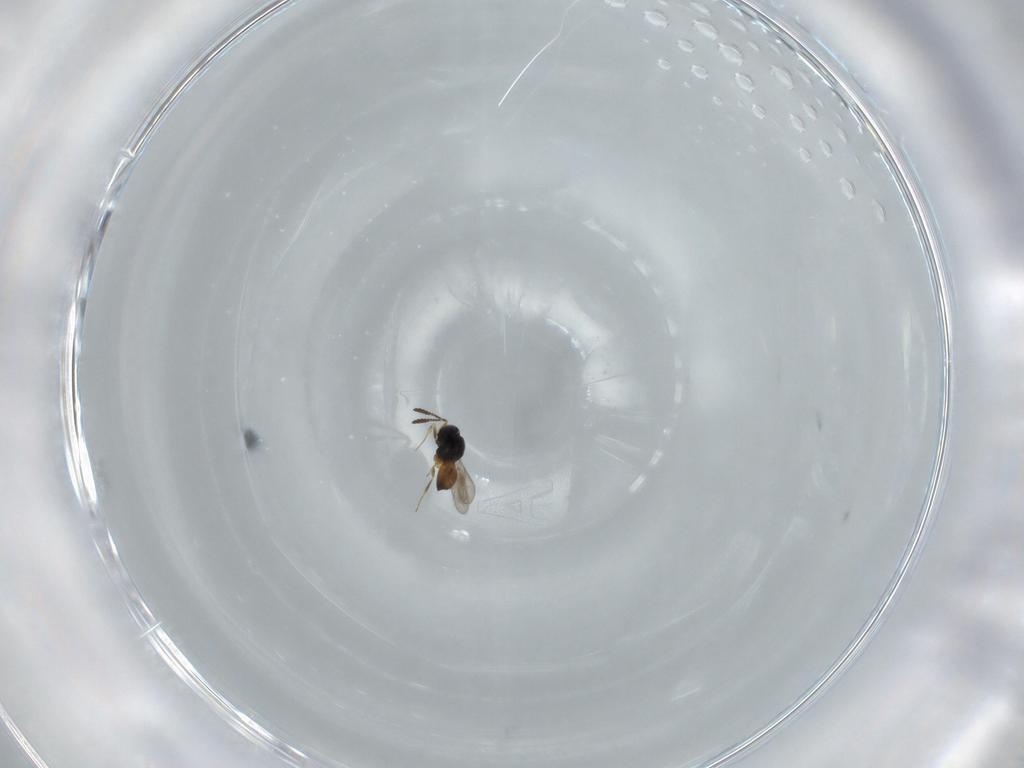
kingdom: Animalia
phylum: Arthropoda
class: Insecta
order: Hymenoptera
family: Scelionidae
